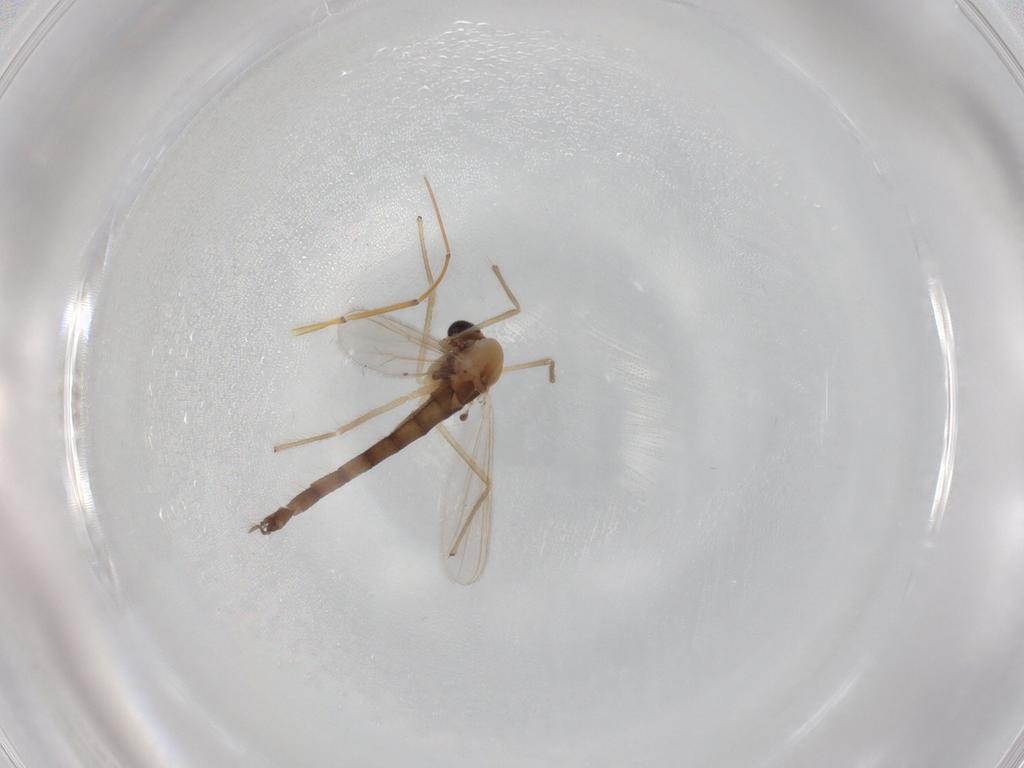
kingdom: Animalia
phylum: Arthropoda
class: Insecta
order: Diptera
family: Chironomidae
